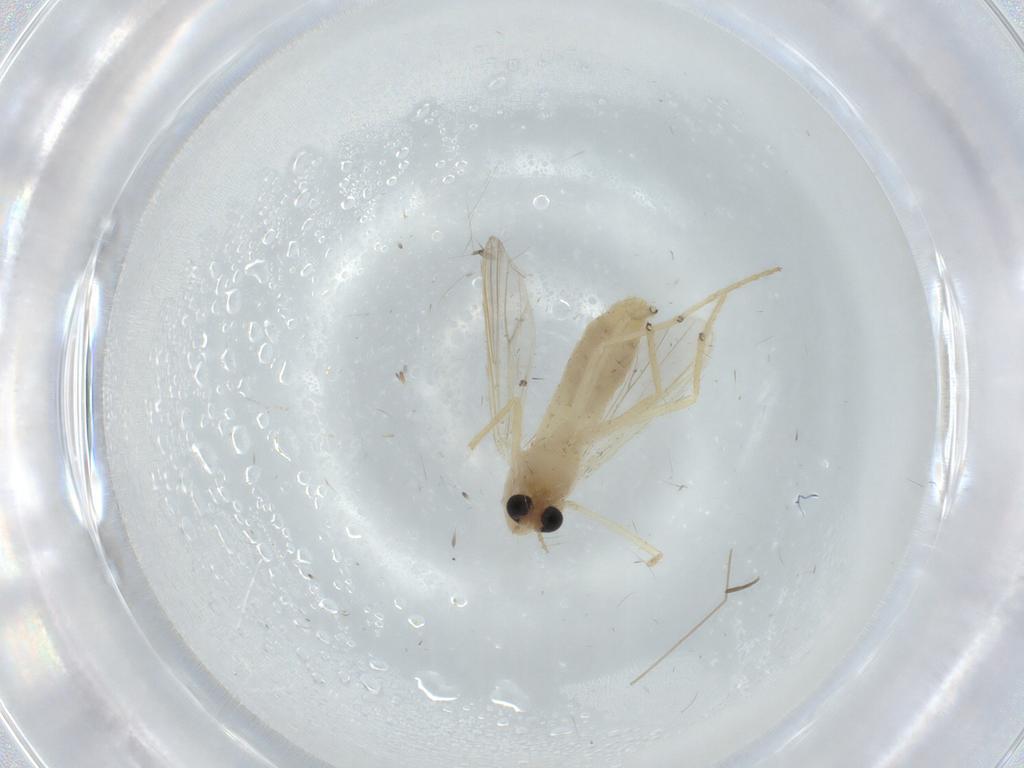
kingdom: Animalia
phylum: Arthropoda
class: Insecta
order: Diptera
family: Chironomidae
